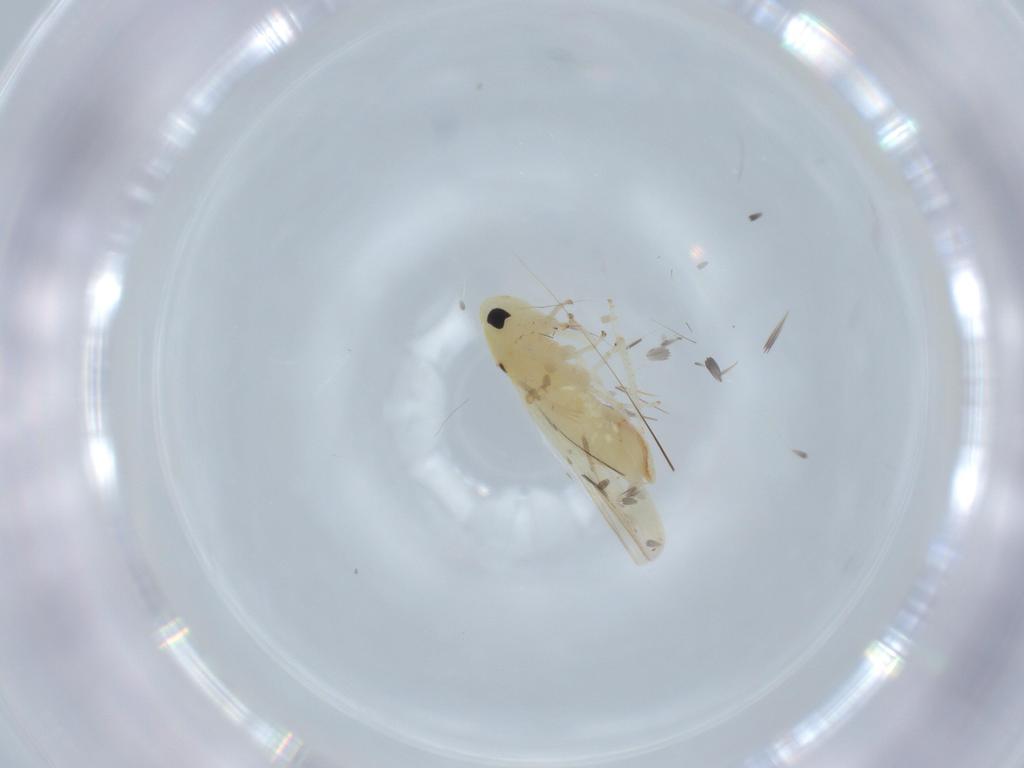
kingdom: Animalia
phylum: Arthropoda
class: Insecta
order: Hemiptera
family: Cicadellidae
